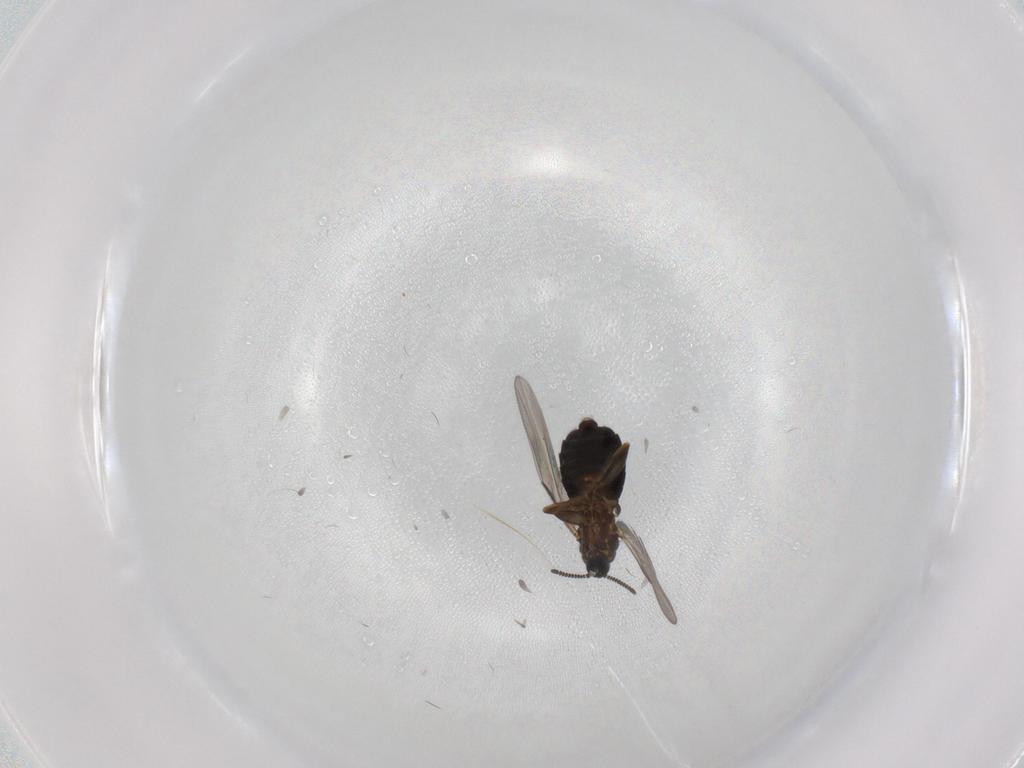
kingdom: Animalia
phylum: Arthropoda
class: Insecta
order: Diptera
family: Scatopsidae
